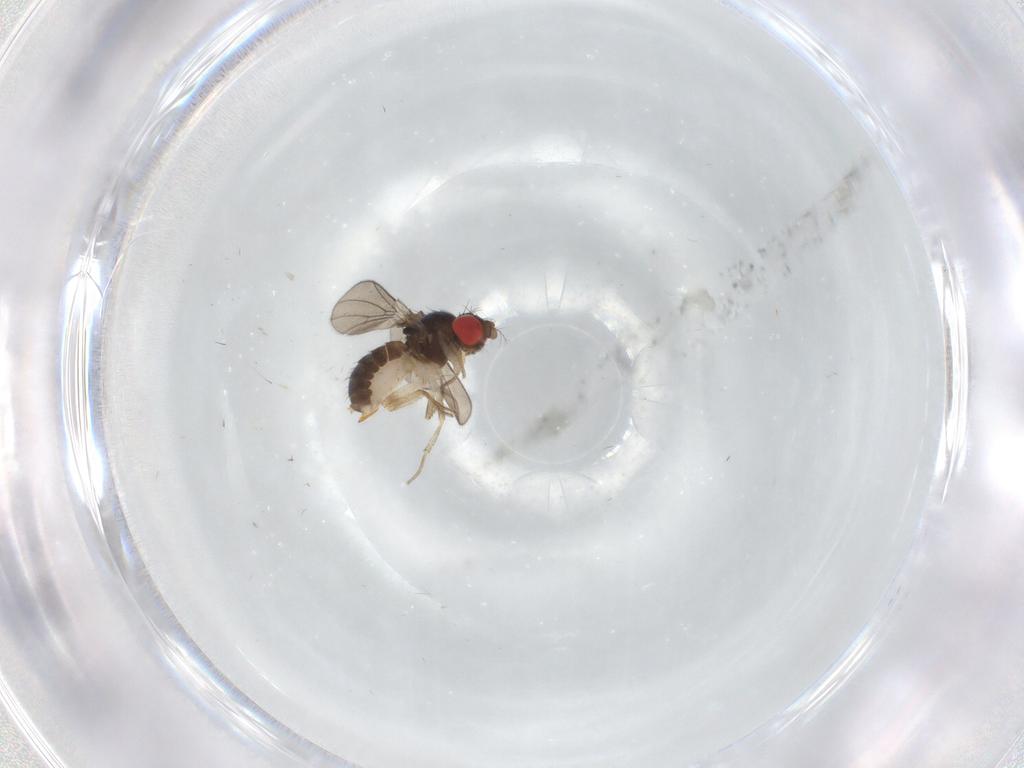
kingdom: Animalia
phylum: Arthropoda
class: Insecta
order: Diptera
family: Drosophilidae
